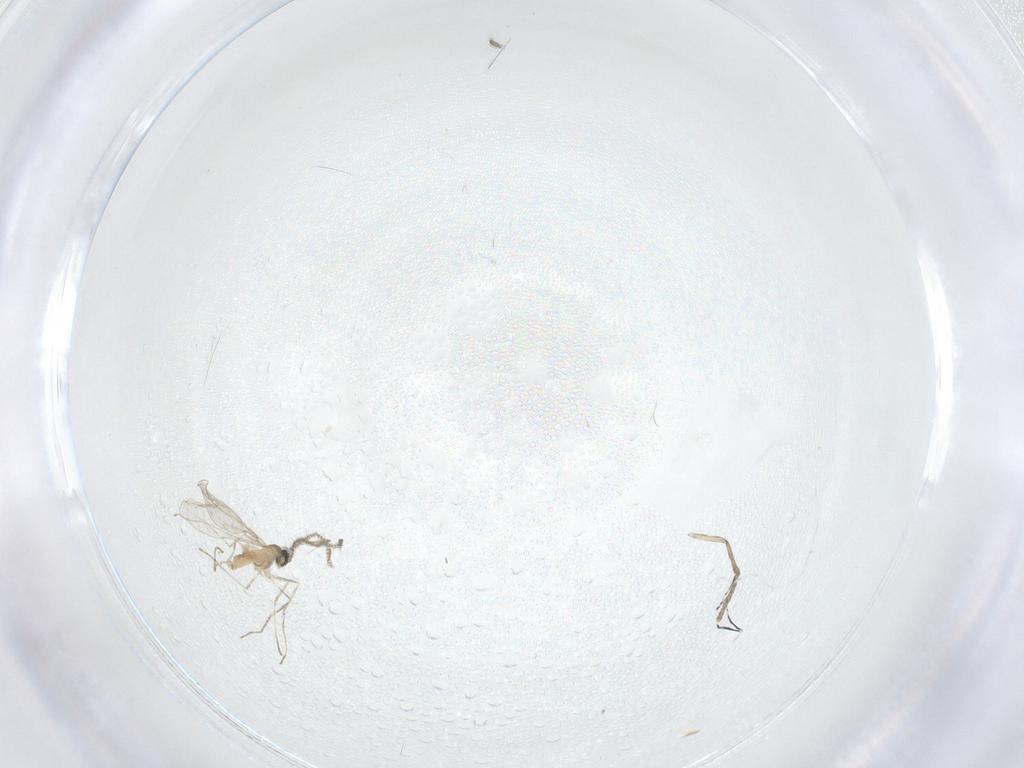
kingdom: Animalia
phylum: Arthropoda
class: Insecta
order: Diptera
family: Cecidomyiidae
